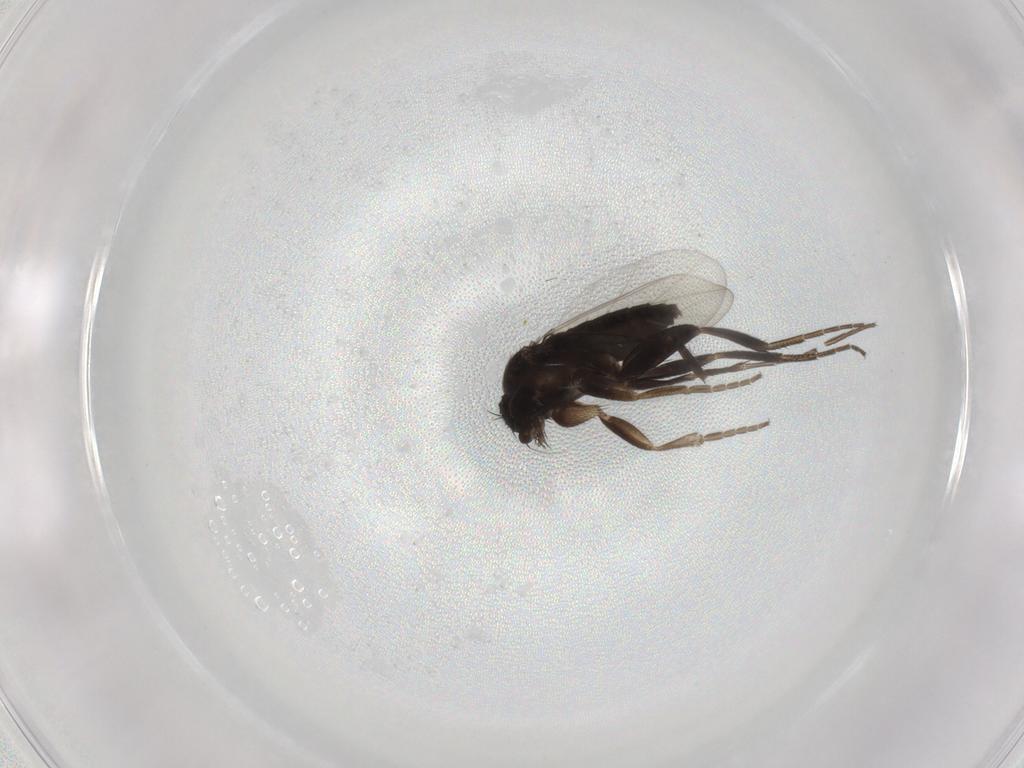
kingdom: Animalia
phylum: Arthropoda
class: Insecta
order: Diptera
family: Phoridae
